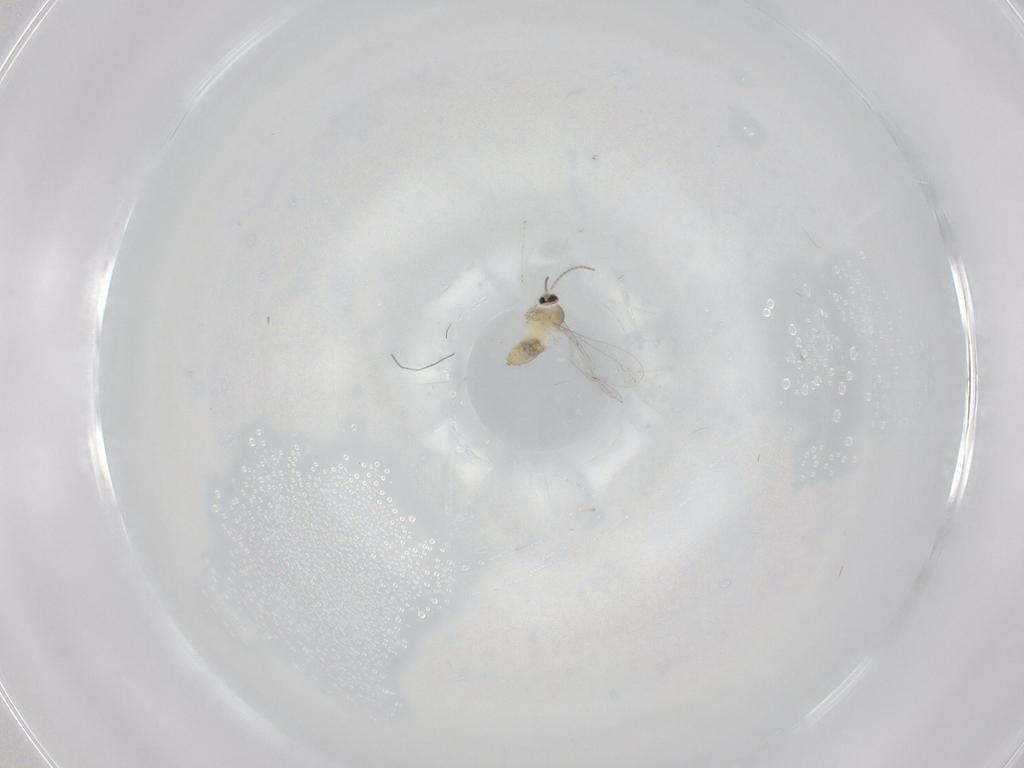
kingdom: Animalia
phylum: Arthropoda
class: Insecta
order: Diptera
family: Cecidomyiidae
